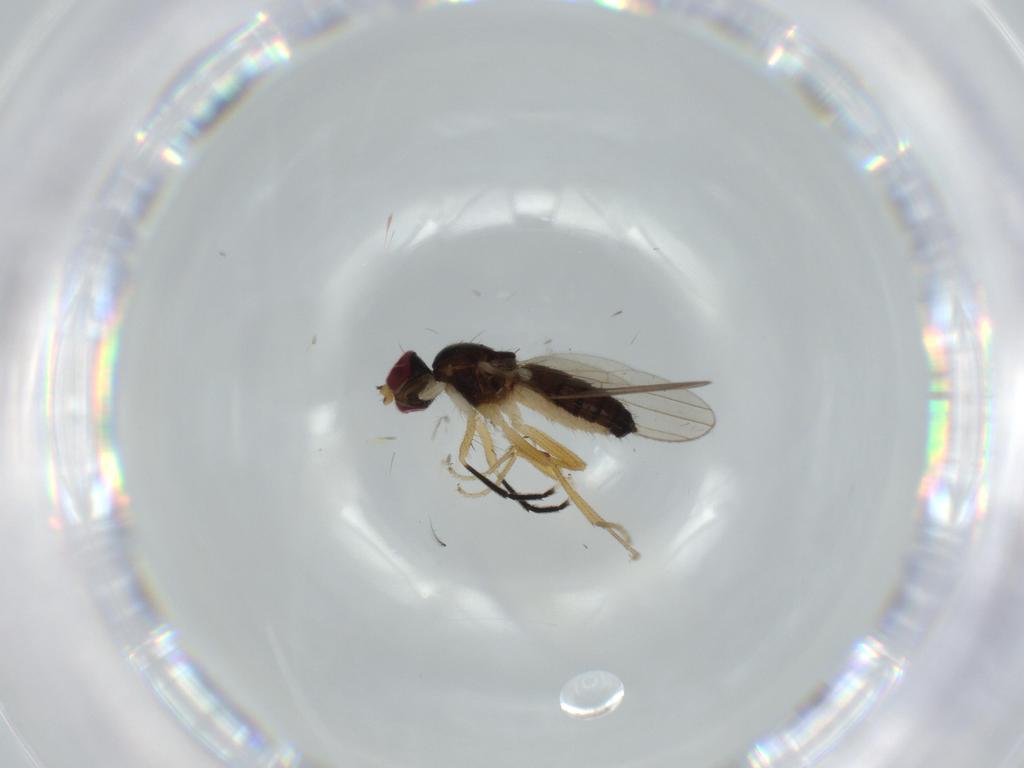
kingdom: Animalia
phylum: Arthropoda
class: Insecta
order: Diptera
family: Anthomyzidae
